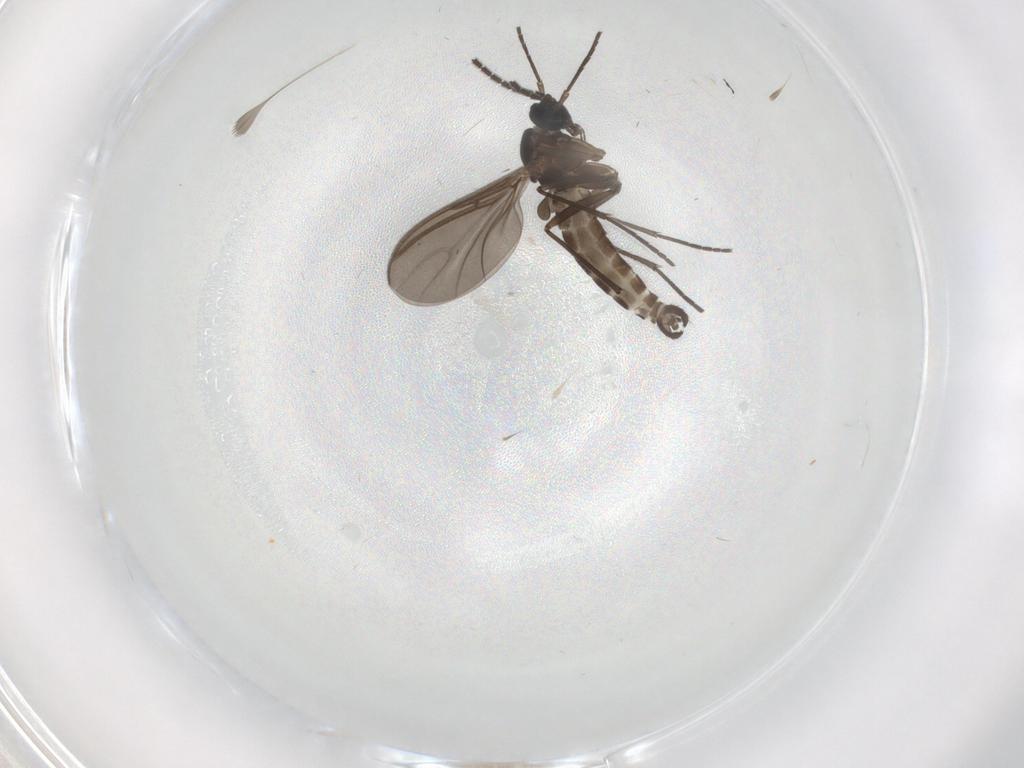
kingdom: Animalia
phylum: Arthropoda
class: Insecta
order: Diptera
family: Sciaridae
